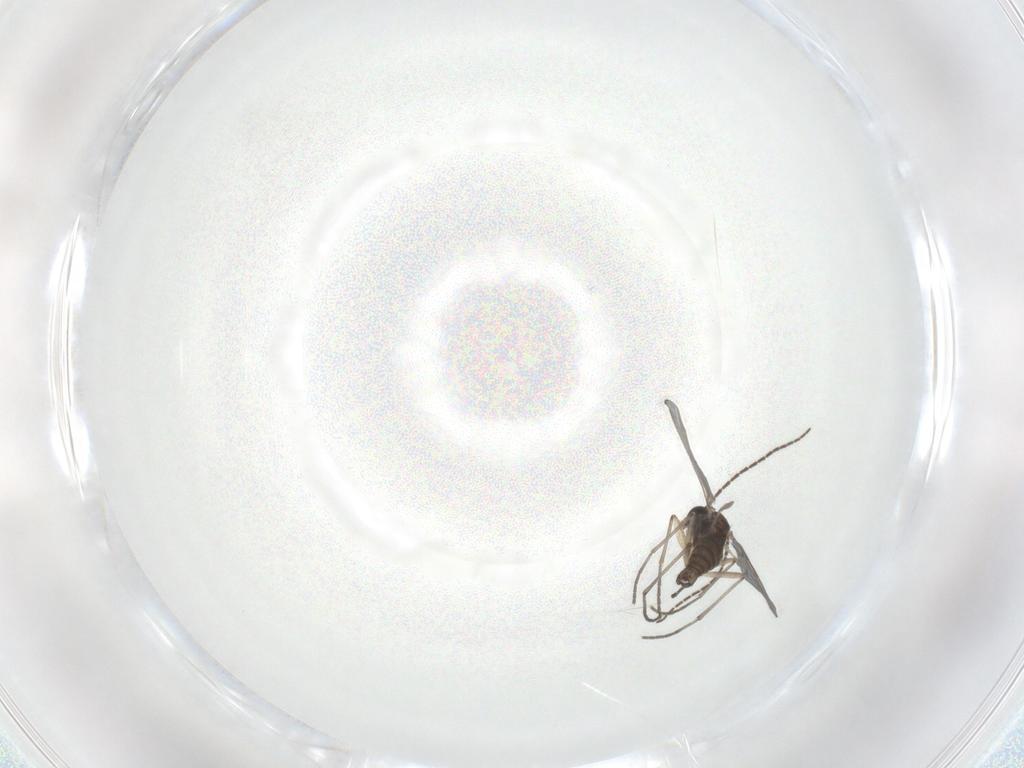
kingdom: Animalia
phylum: Arthropoda
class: Insecta
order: Diptera
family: Sciaridae
